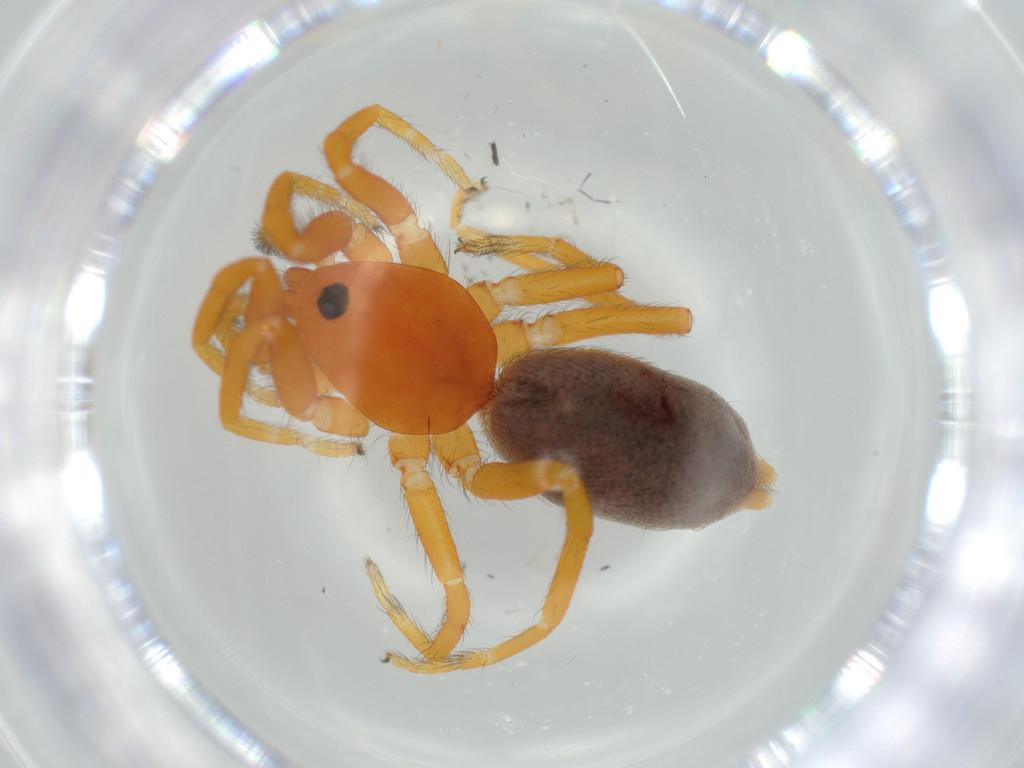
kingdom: Animalia
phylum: Arthropoda
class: Arachnida
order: Araneae
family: Caponiidae
